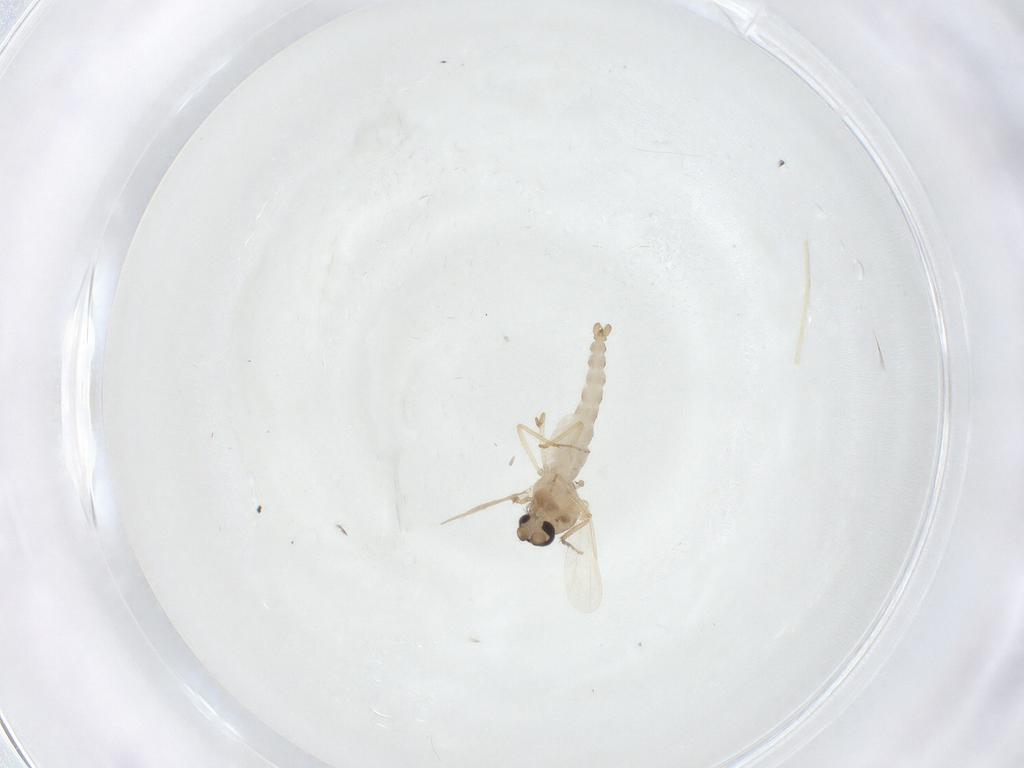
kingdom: Animalia
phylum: Arthropoda
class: Insecta
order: Diptera
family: Ceratopogonidae
